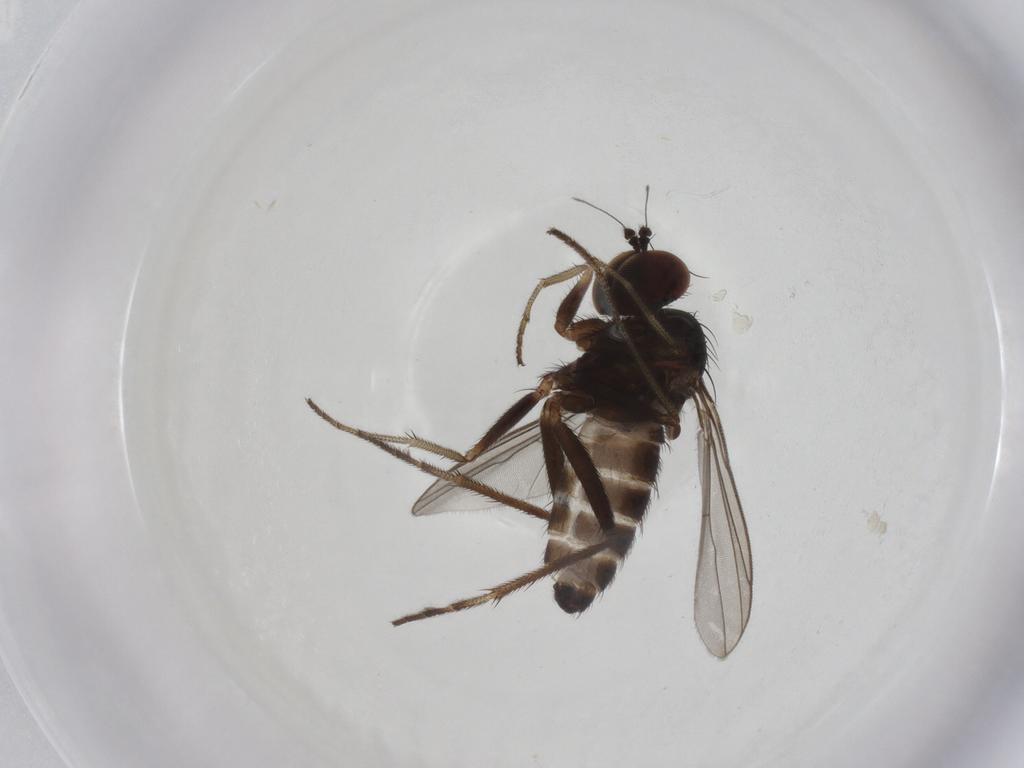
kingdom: Animalia
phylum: Arthropoda
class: Insecta
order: Diptera
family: Dolichopodidae
